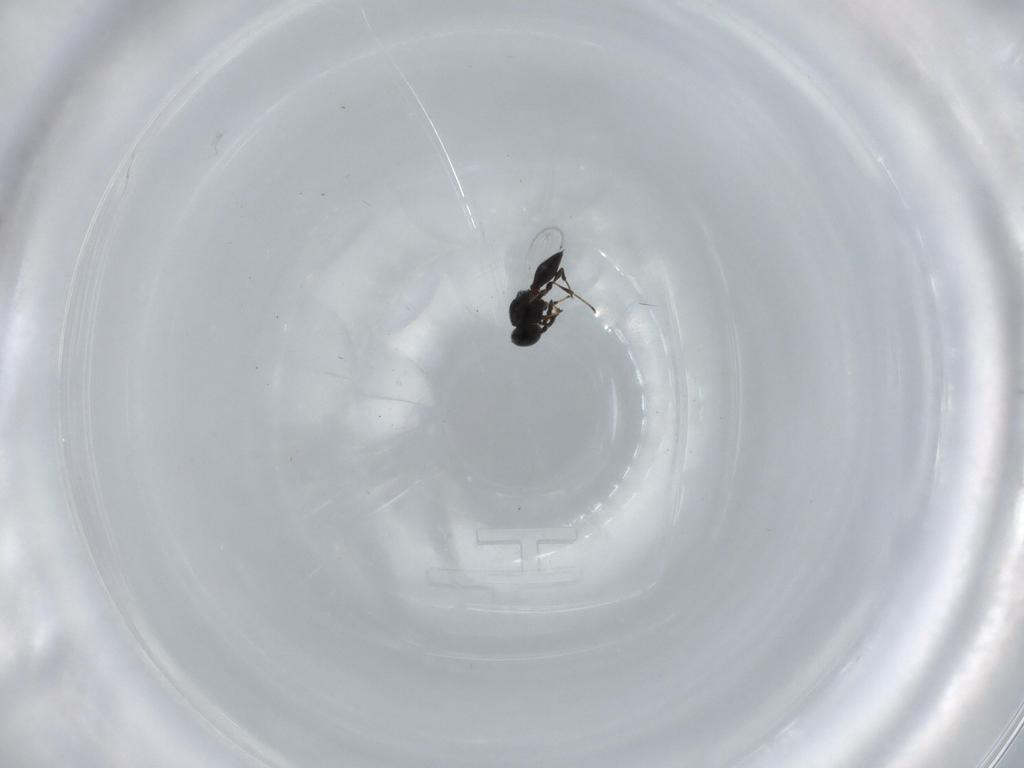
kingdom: Animalia
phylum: Arthropoda
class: Insecta
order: Hymenoptera
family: Platygastridae
